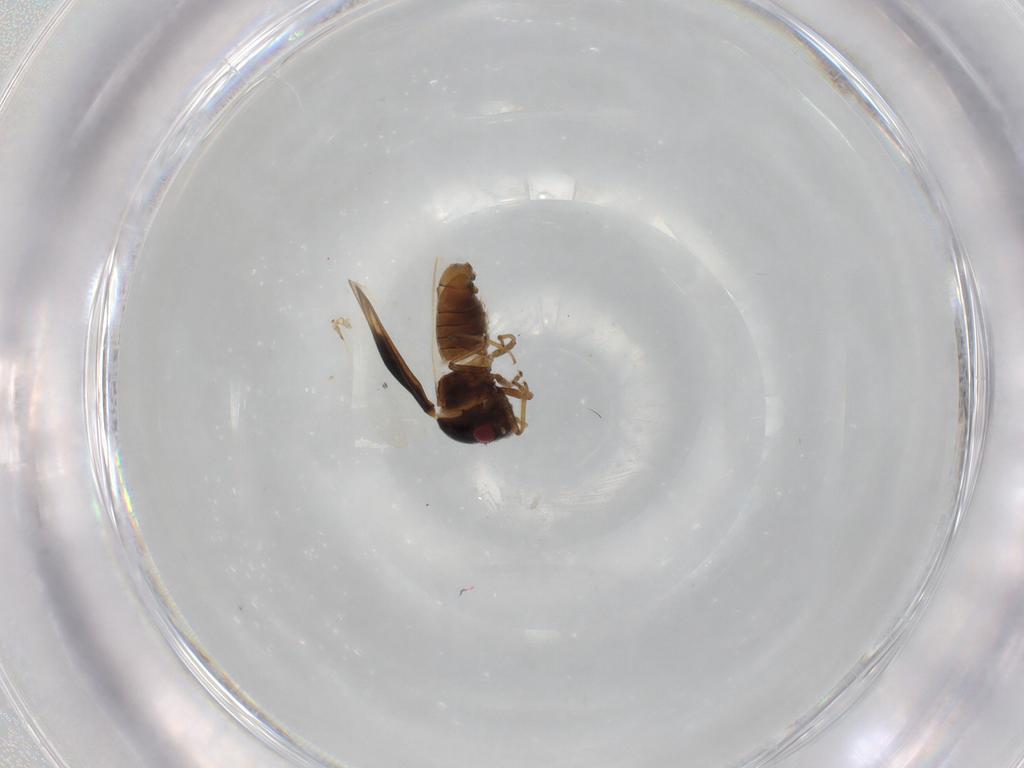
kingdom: Animalia
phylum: Arthropoda
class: Insecta
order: Hemiptera
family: Schizopteridae
